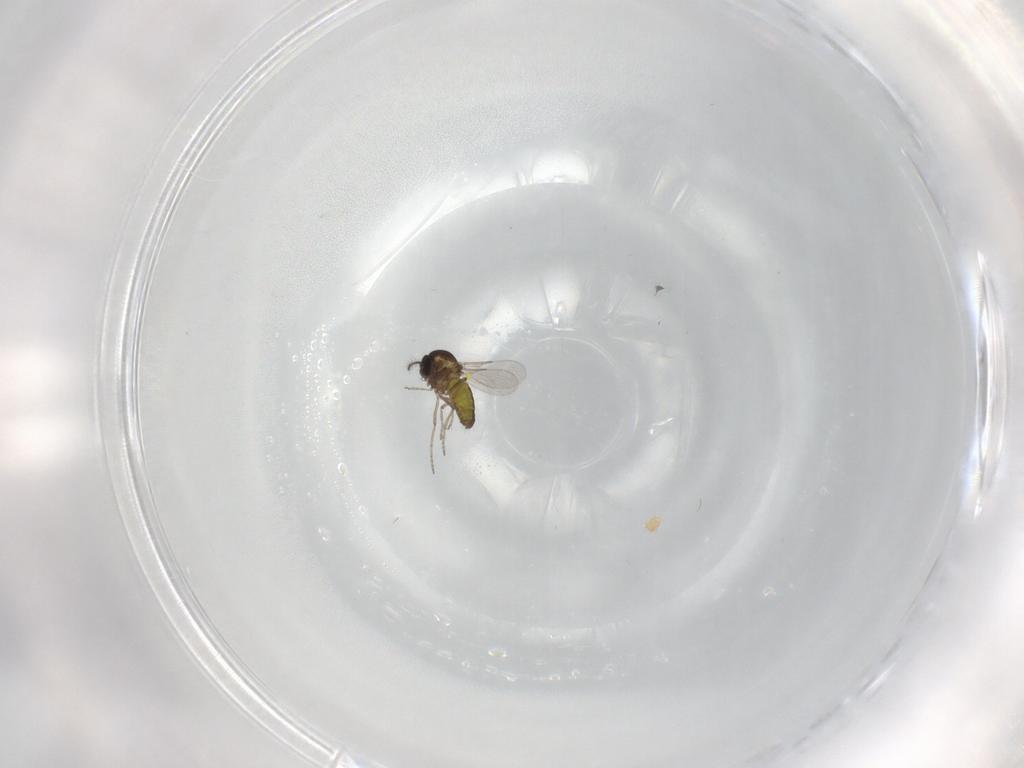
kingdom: Animalia
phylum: Arthropoda
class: Insecta
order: Diptera
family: Ceratopogonidae
